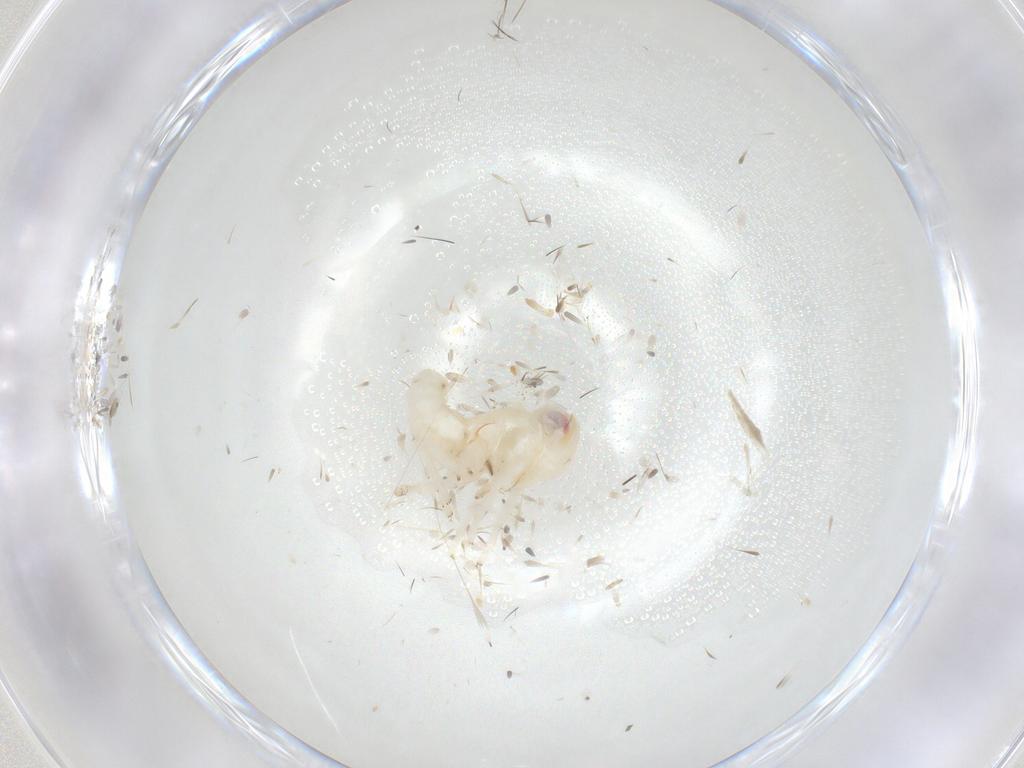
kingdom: Animalia
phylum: Arthropoda
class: Insecta
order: Hemiptera
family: Nogodinidae
